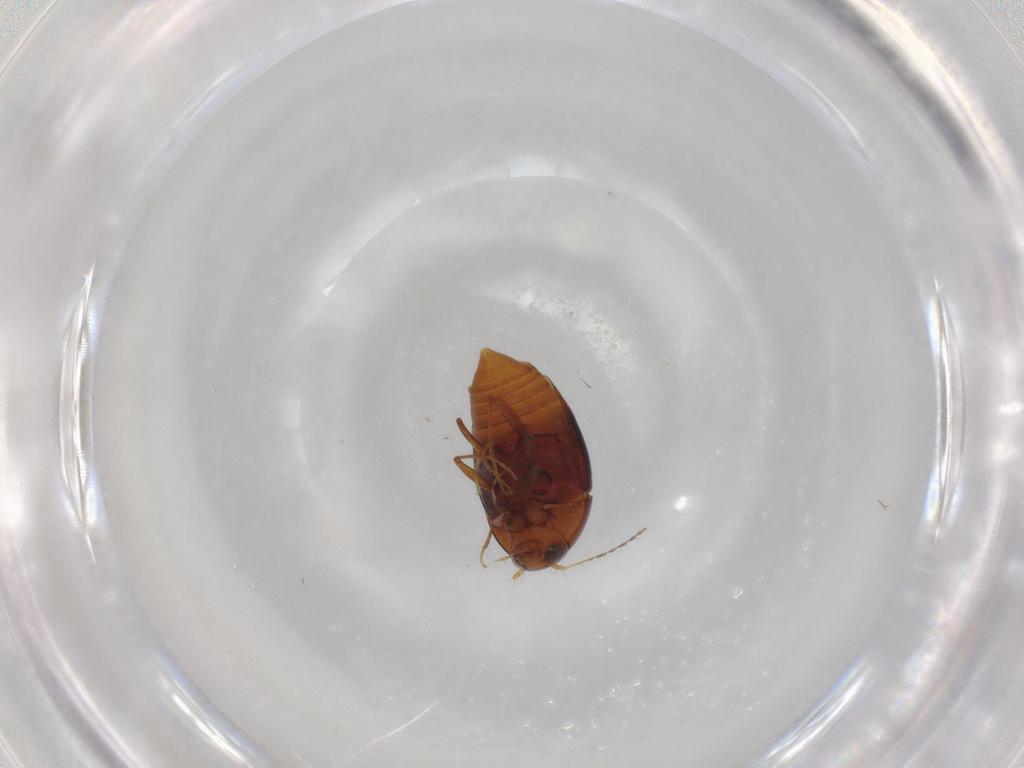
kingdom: Animalia
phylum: Arthropoda
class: Insecta
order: Coleoptera
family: Staphylinidae
